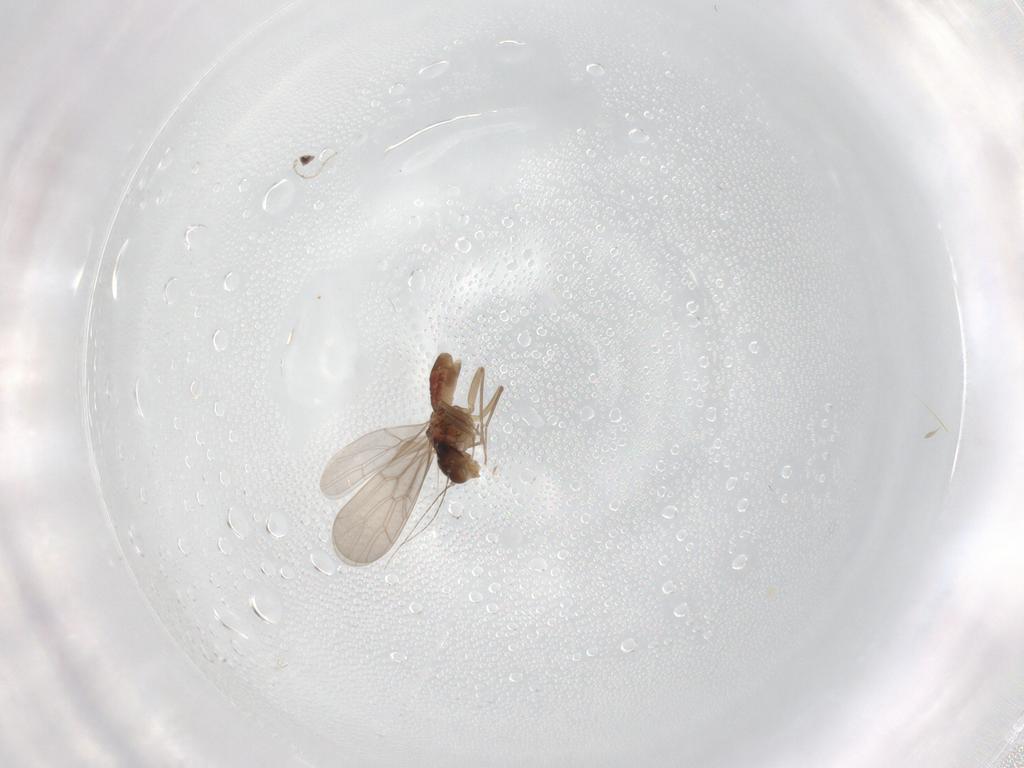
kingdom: Animalia
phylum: Arthropoda
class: Insecta
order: Psocodea
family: Lepidopsocidae
